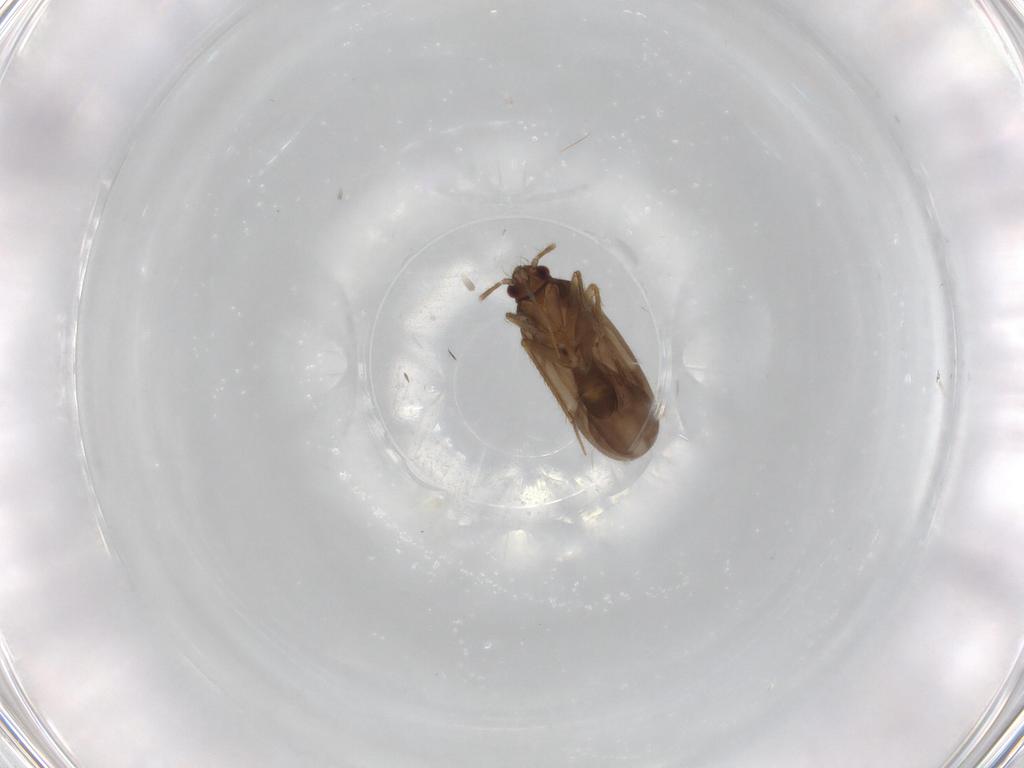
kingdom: Animalia
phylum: Arthropoda
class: Insecta
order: Hemiptera
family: Ceratocombidae
